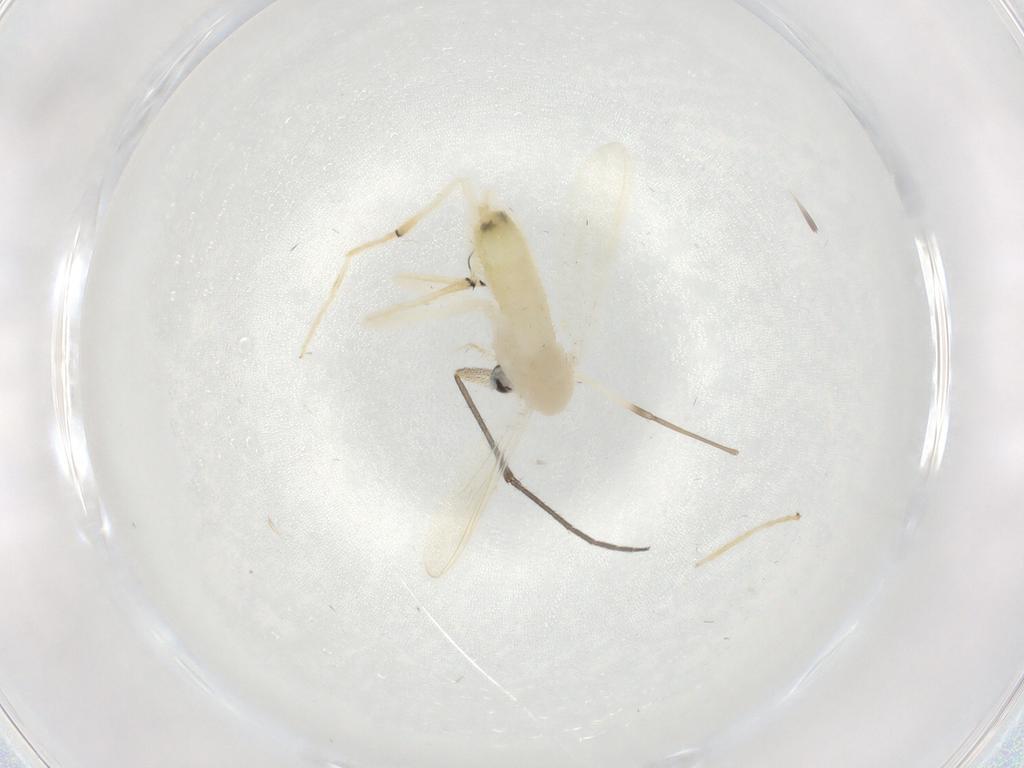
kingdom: Animalia
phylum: Arthropoda
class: Insecta
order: Diptera
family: Sciaridae
